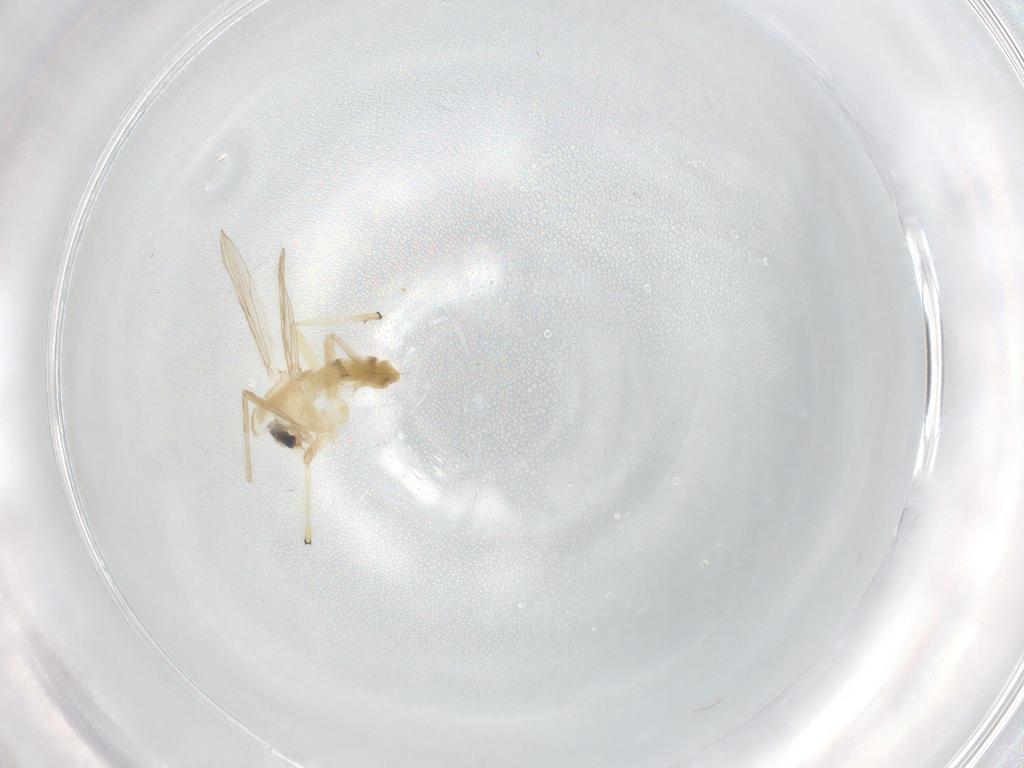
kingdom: Animalia
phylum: Arthropoda
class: Insecta
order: Diptera
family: Chironomidae
